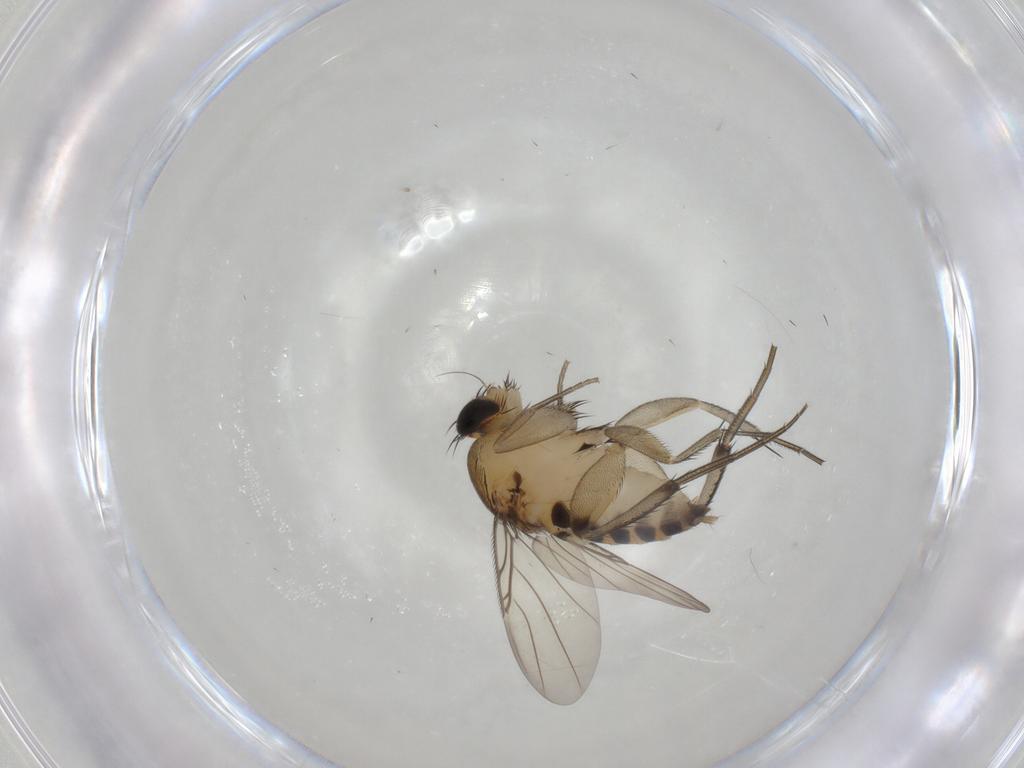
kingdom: Animalia
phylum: Arthropoda
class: Insecta
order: Diptera
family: Phoridae
